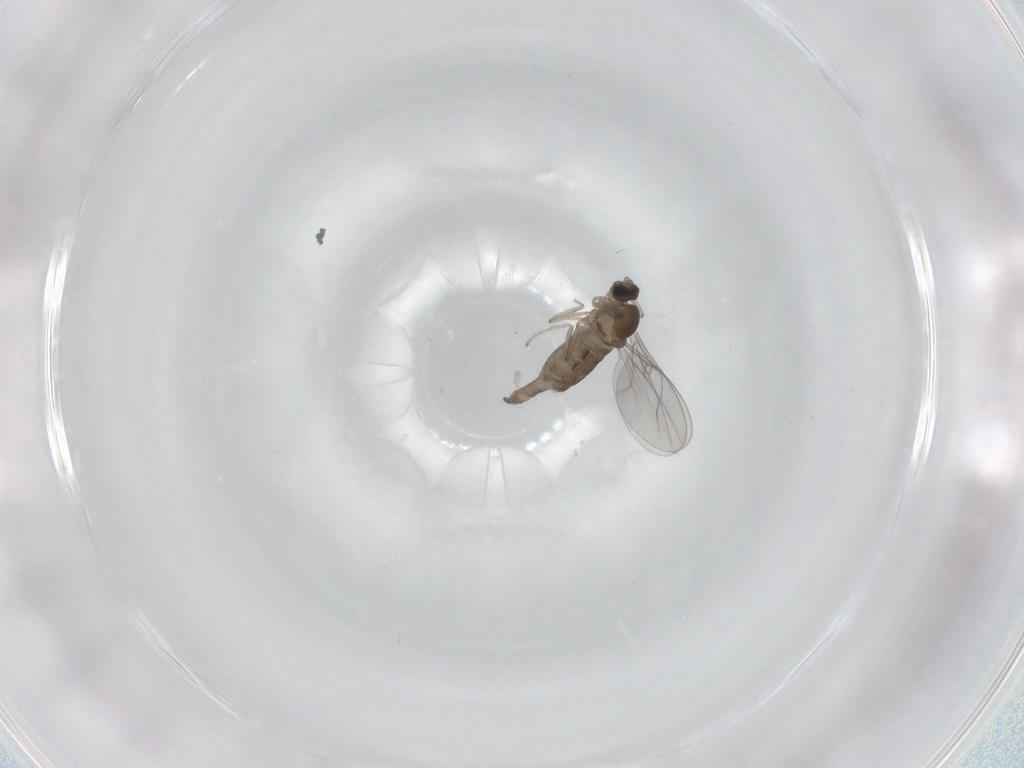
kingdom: Animalia
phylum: Arthropoda
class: Insecta
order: Diptera
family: Cecidomyiidae
